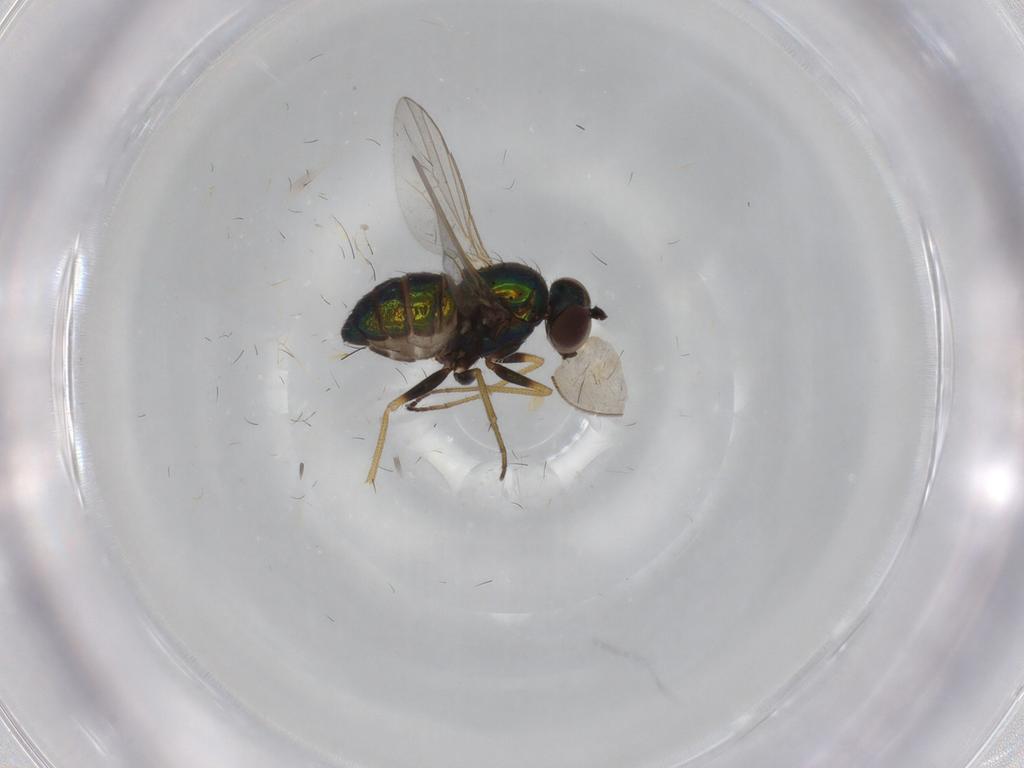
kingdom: Animalia
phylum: Arthropoda
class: Insecta
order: Diptera
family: Dolichopodidae
